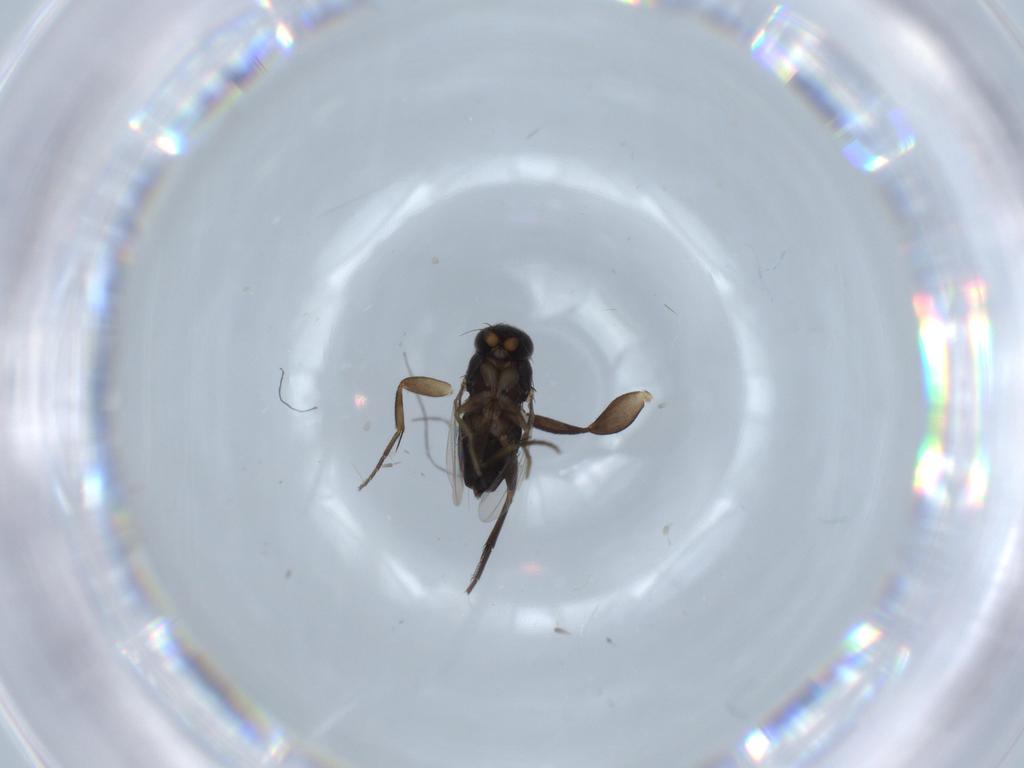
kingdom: Animalia
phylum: Arthropoda
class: Insecta
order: Diptera
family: Phoridae
